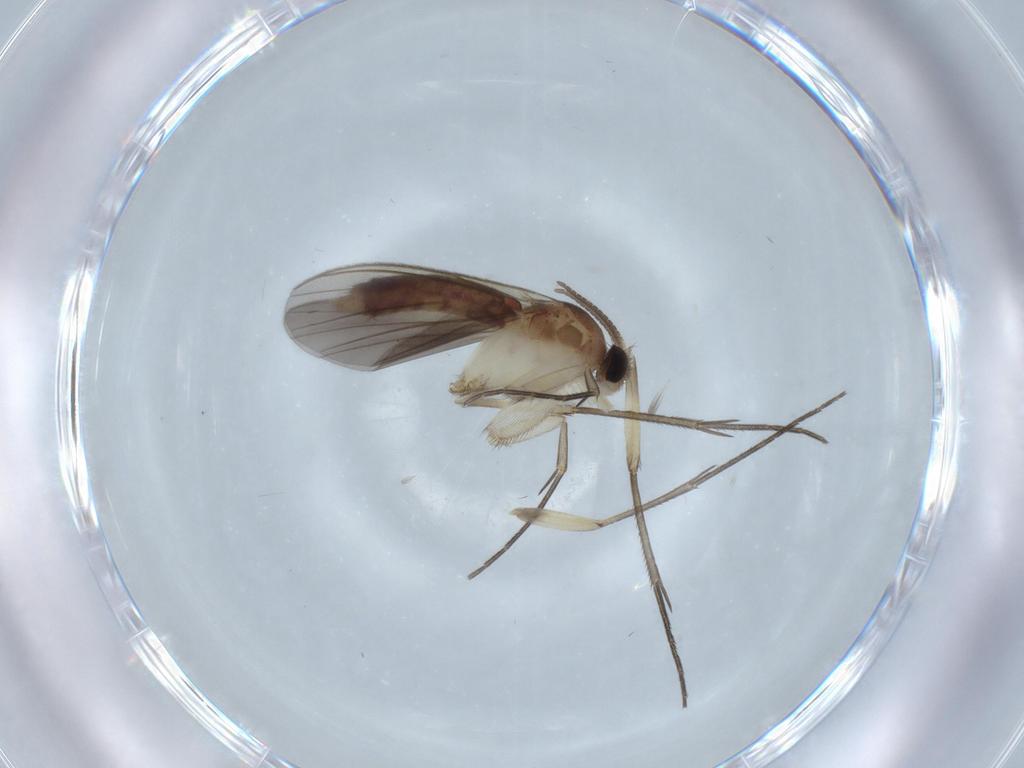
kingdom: Animalia
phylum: Arthropoda
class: Insecta
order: Diptera
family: Mycetophilidae
